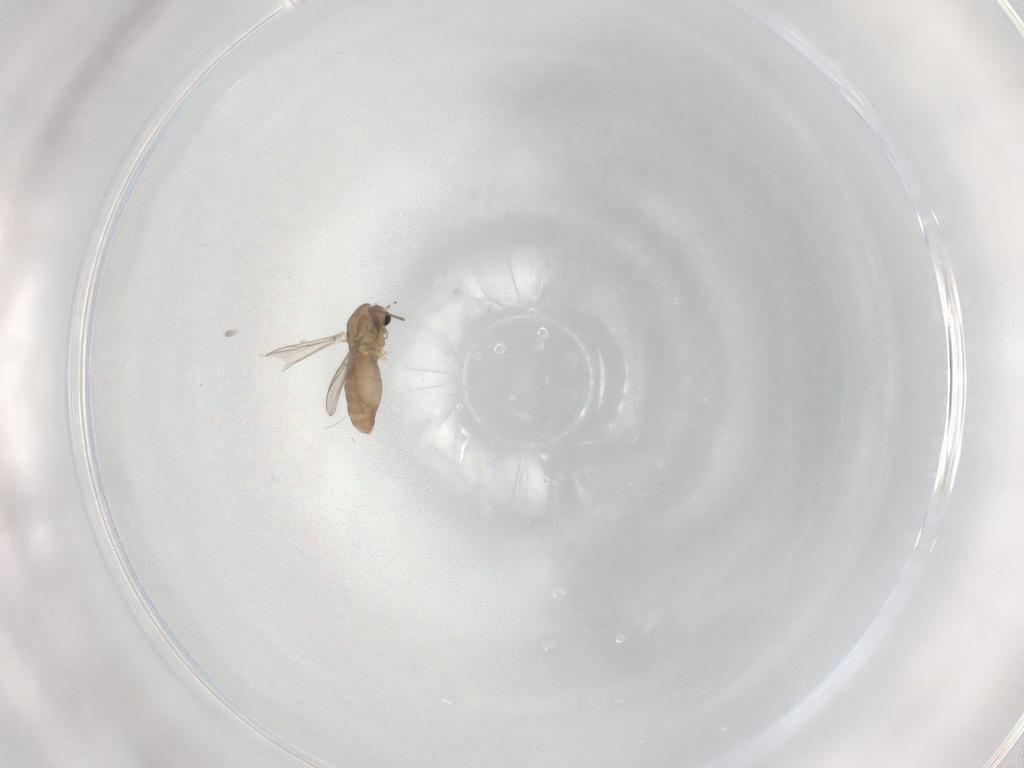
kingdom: Animalia
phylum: Arthropoda
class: Insecta
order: Diptera
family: Chironomidae
